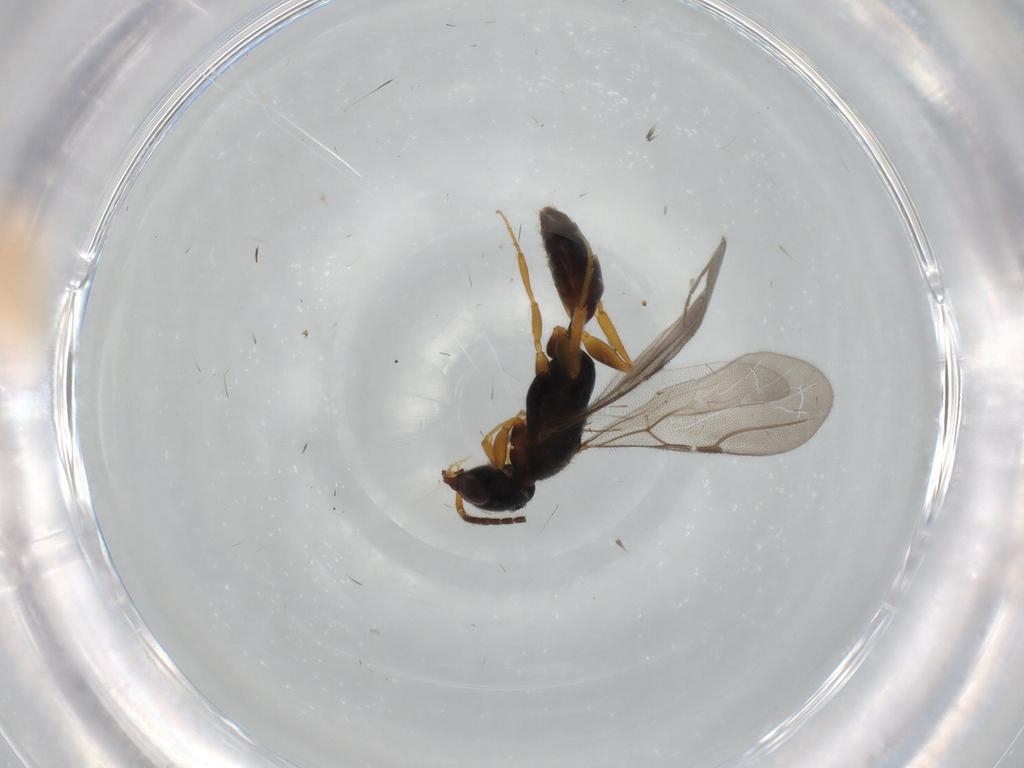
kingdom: Animalia
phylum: Arthropoda
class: Insecta
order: Hymenoptera
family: Bethylidae
